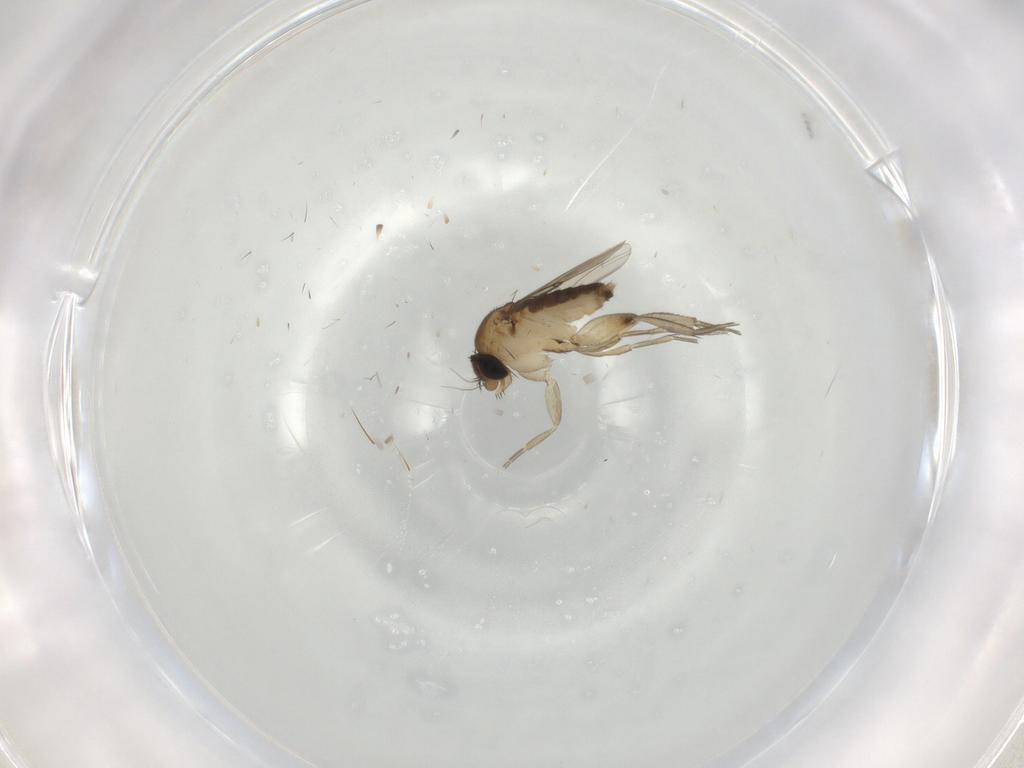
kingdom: Animalia
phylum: Arthropoda
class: Insecta
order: Diptera
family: Phoridae
